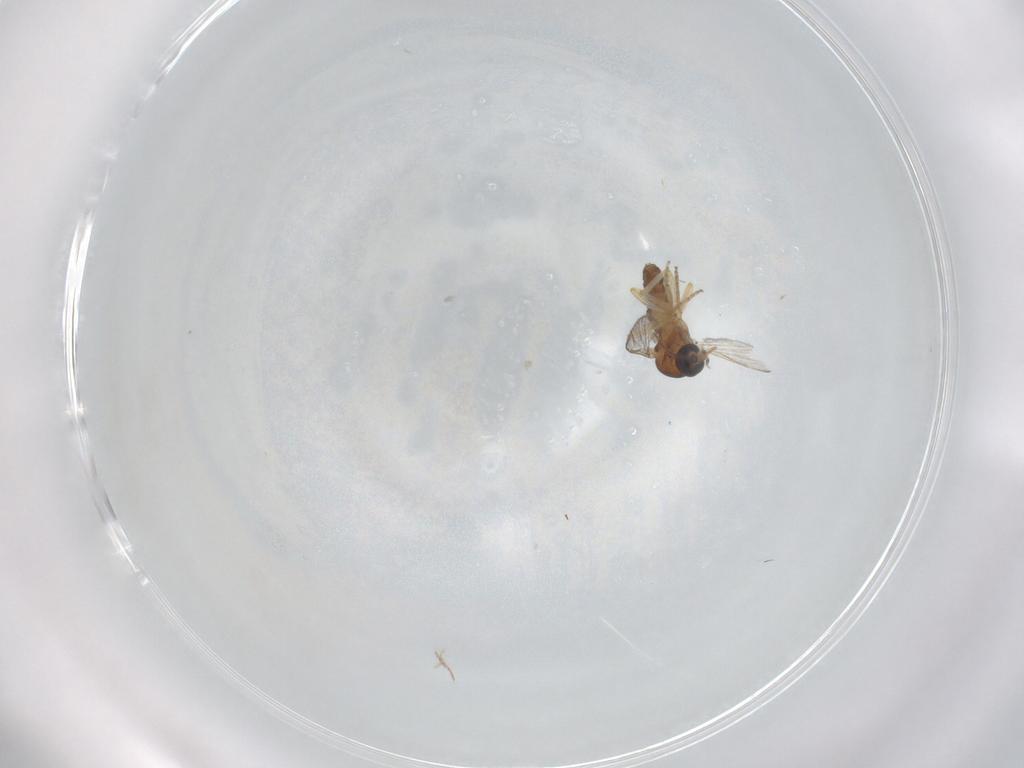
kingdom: Animalia
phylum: Arthropoda
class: Insecta
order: Diptera
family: Ceratopogonidae
